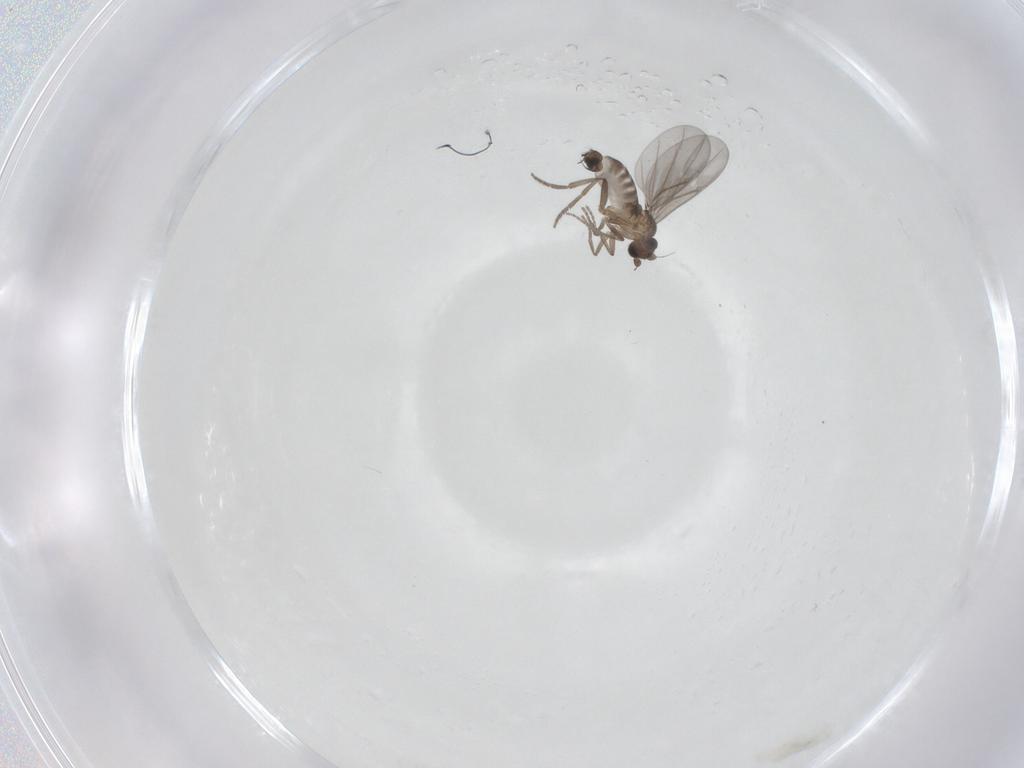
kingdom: Animalia
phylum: Arthropoda
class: Insecta
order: Diptera
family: Phoridae
